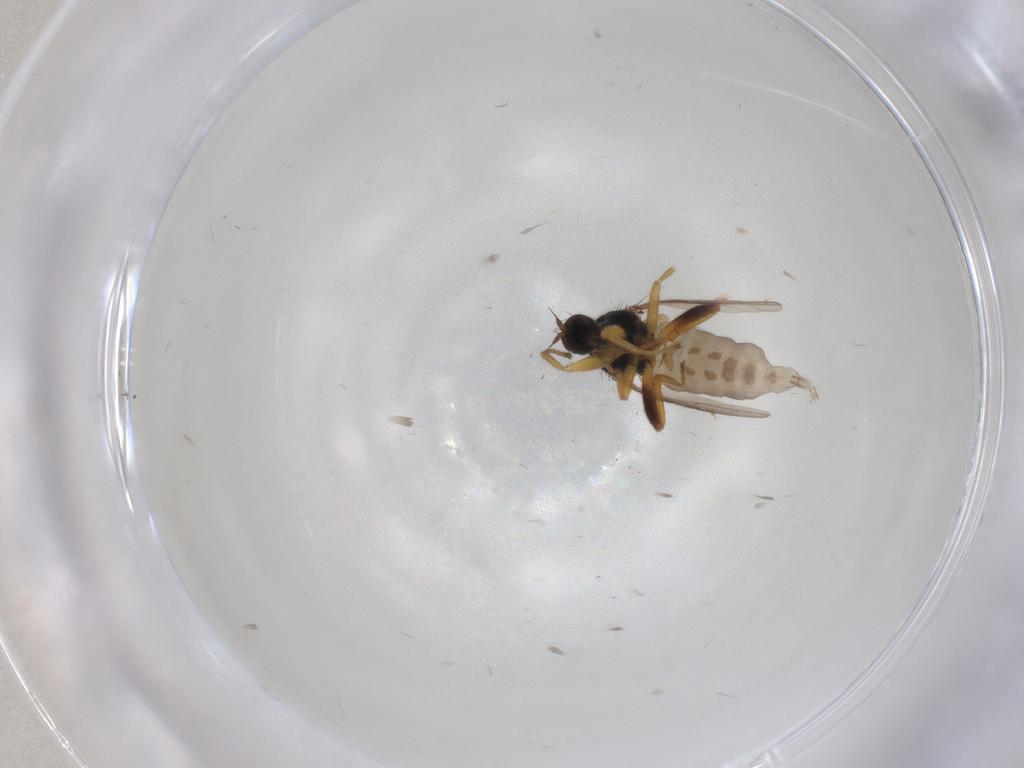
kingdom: Animalia
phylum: Arthropoda
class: Insecta
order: Diptera
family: Hybotidae
